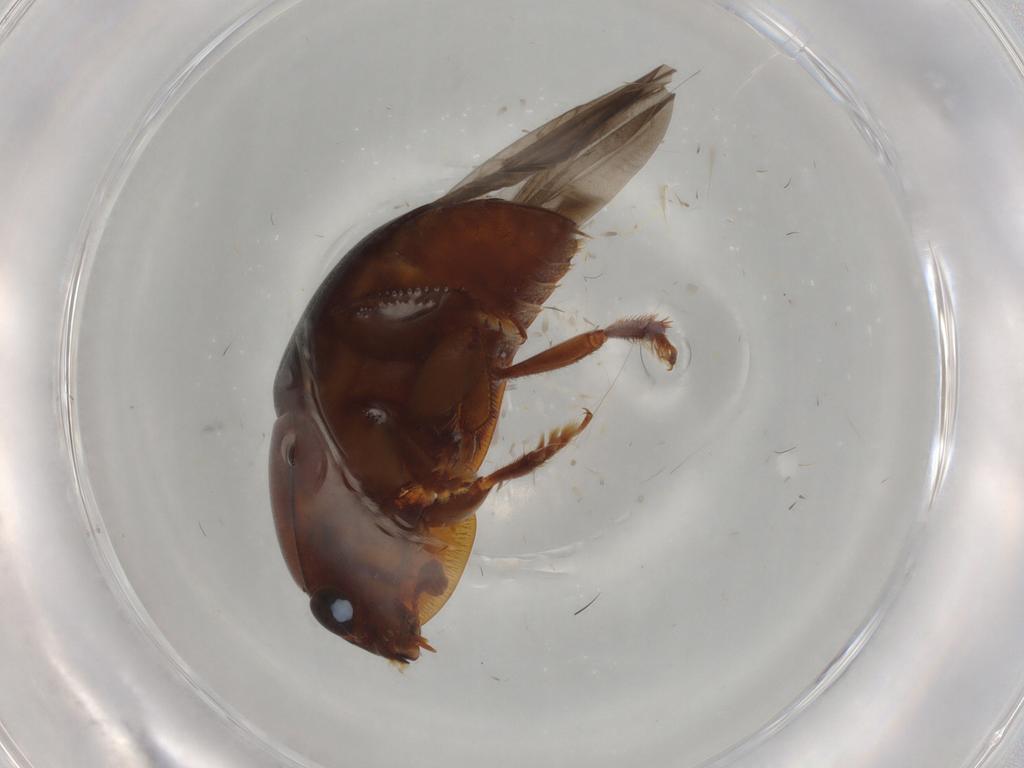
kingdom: Animalia
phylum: Arthropoda
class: Insecta
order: Coleoptera
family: Nitidulidae
